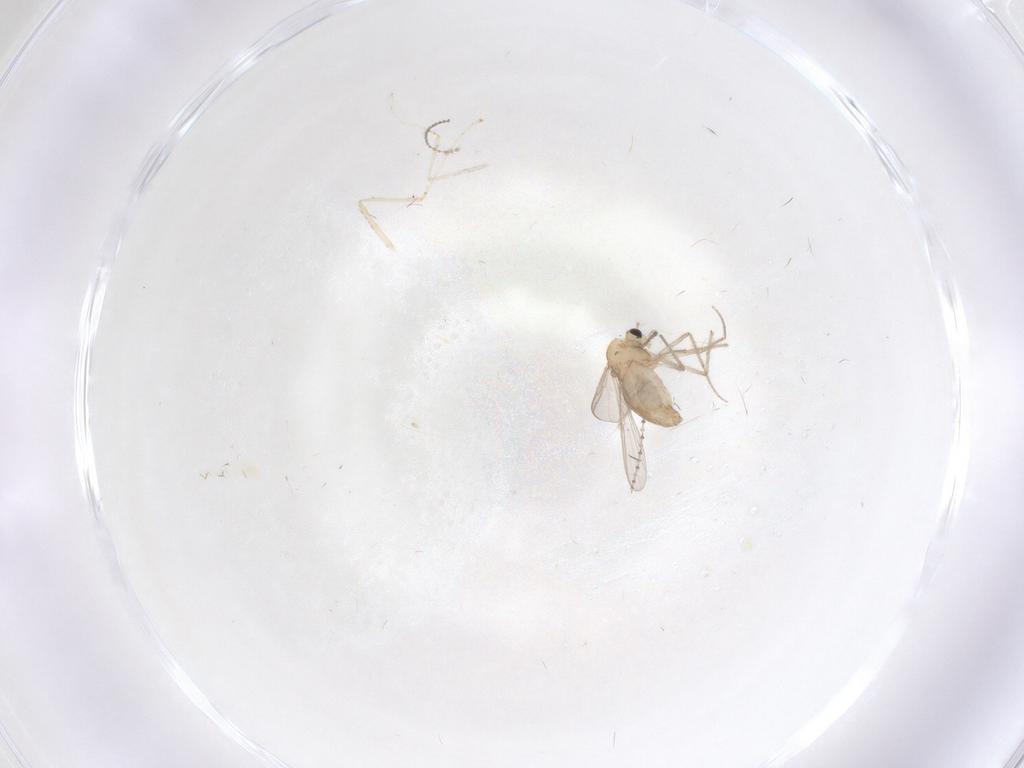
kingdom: Animalia
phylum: Arthropoda
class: Insecta
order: Diptera
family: Chironomidae
